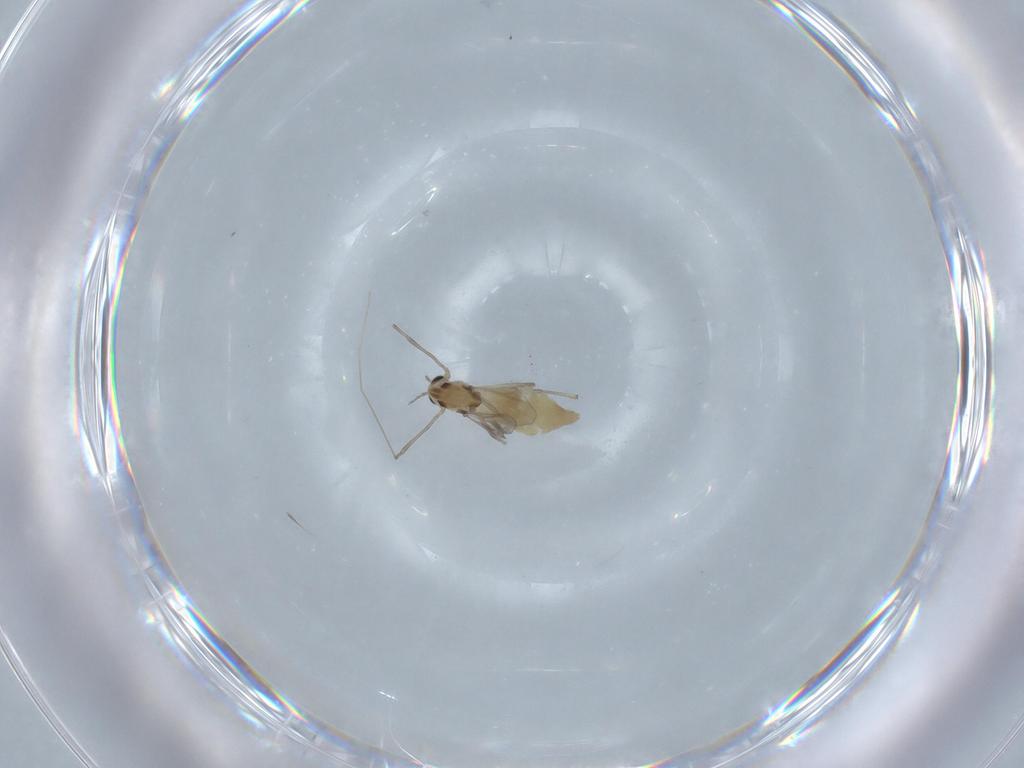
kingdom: Animalia
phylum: Arthropoda
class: Insecta
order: Diptera
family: Chironomidae
